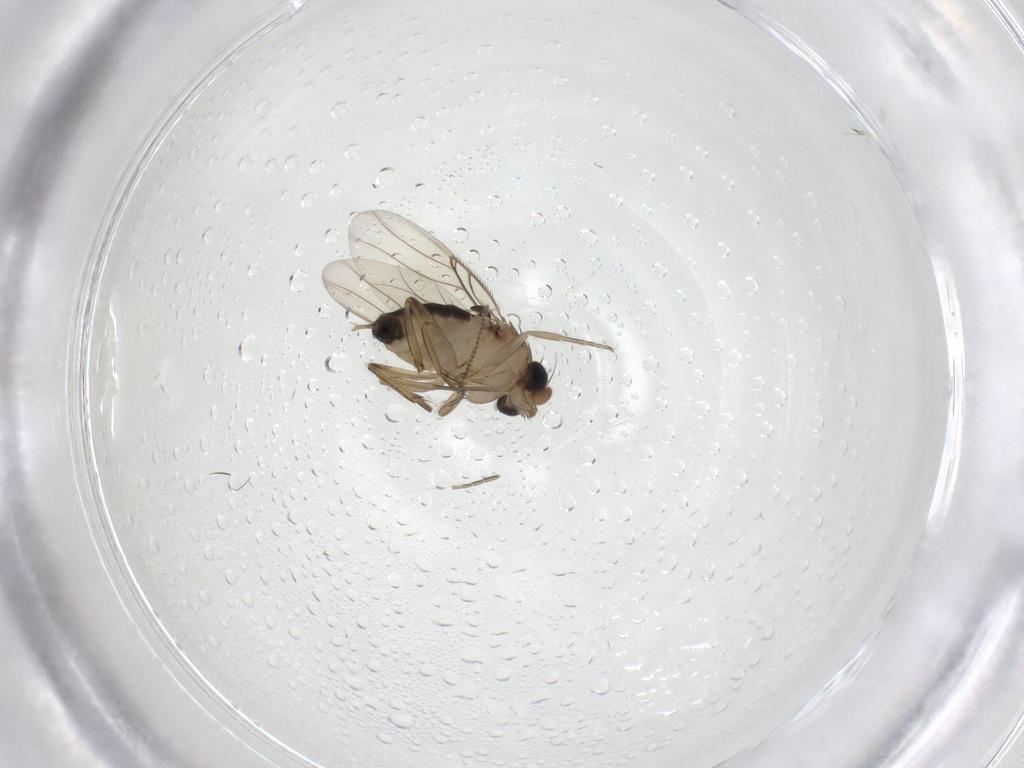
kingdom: Animalia
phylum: Arthropoda
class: Insecta
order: Diptera
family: Phoridae
